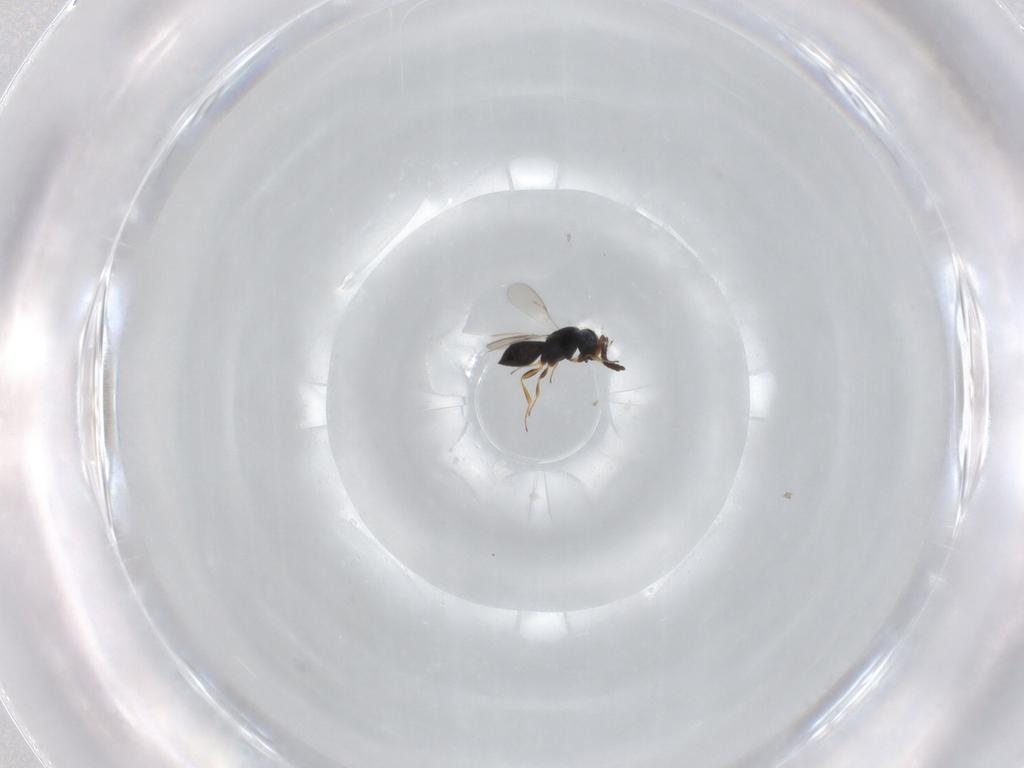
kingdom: Animalia
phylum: Arthropoda
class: Insecta
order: Hymenoptera
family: Scelionidae
